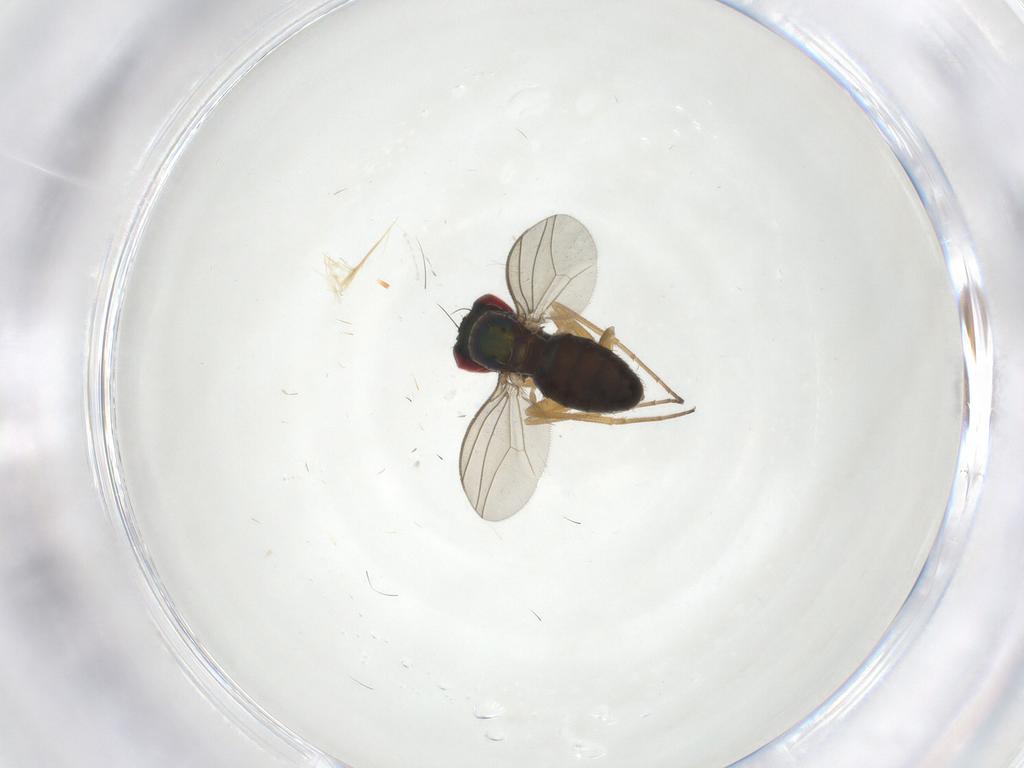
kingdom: Animalia
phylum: Arthropoda
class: Insecta
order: Diptera
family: Dolichopodidae
